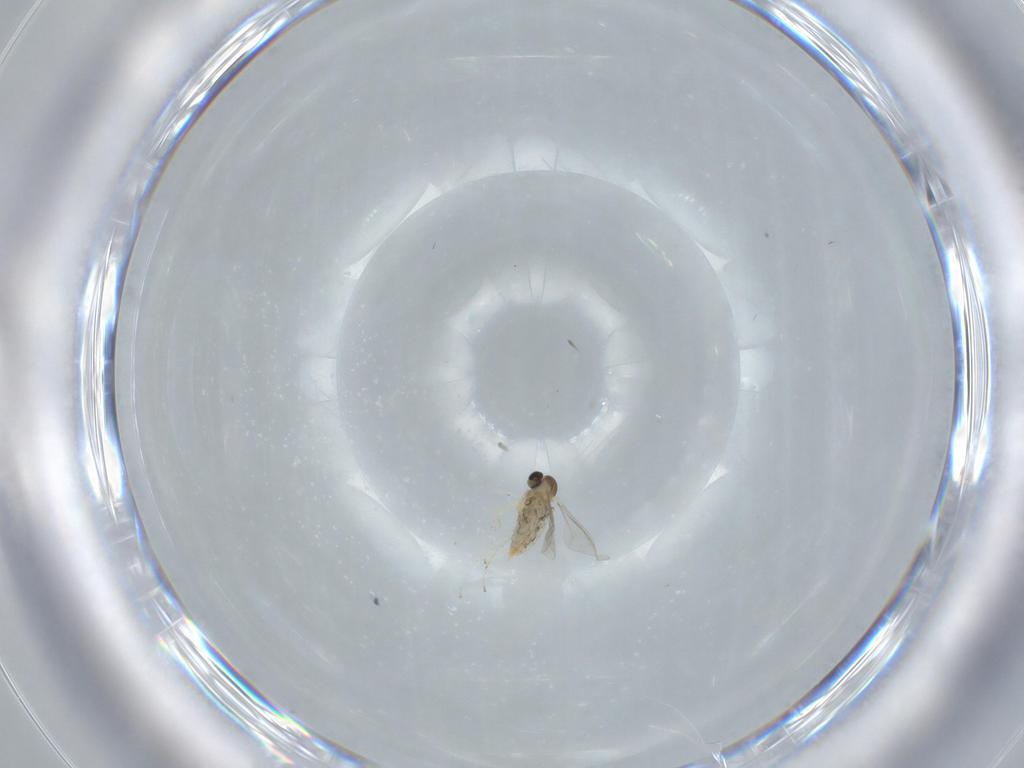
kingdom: Animalia
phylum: Arthropoda
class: Insecta
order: Diptera
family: Cecidomyiidae
